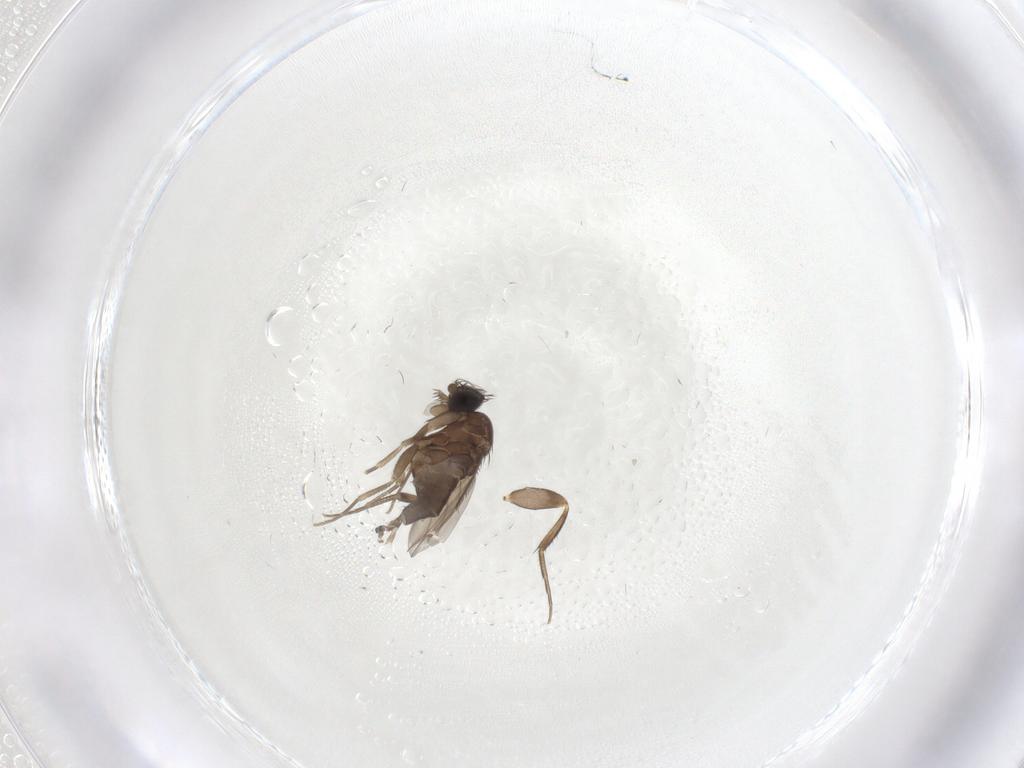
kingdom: Animalia
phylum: Arthropoda
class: Insecta
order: Diptera
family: Phoridae
